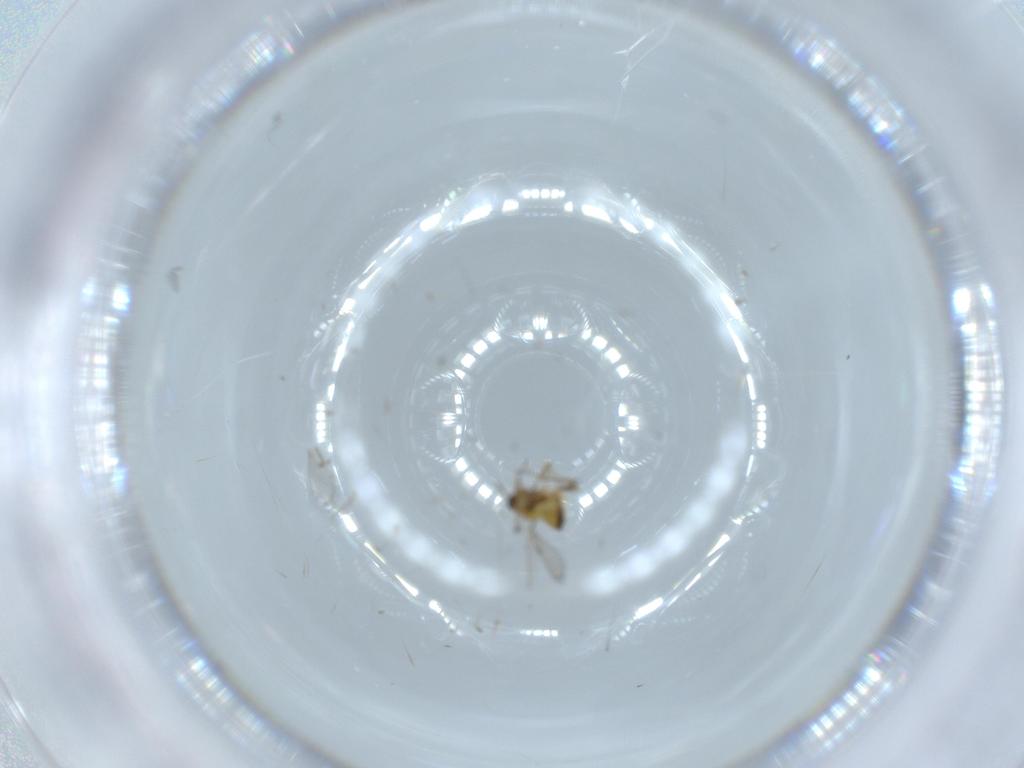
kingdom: Animalia
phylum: Arthropoda
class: Insecta
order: Hymenoptera
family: Trichogrammatidae
